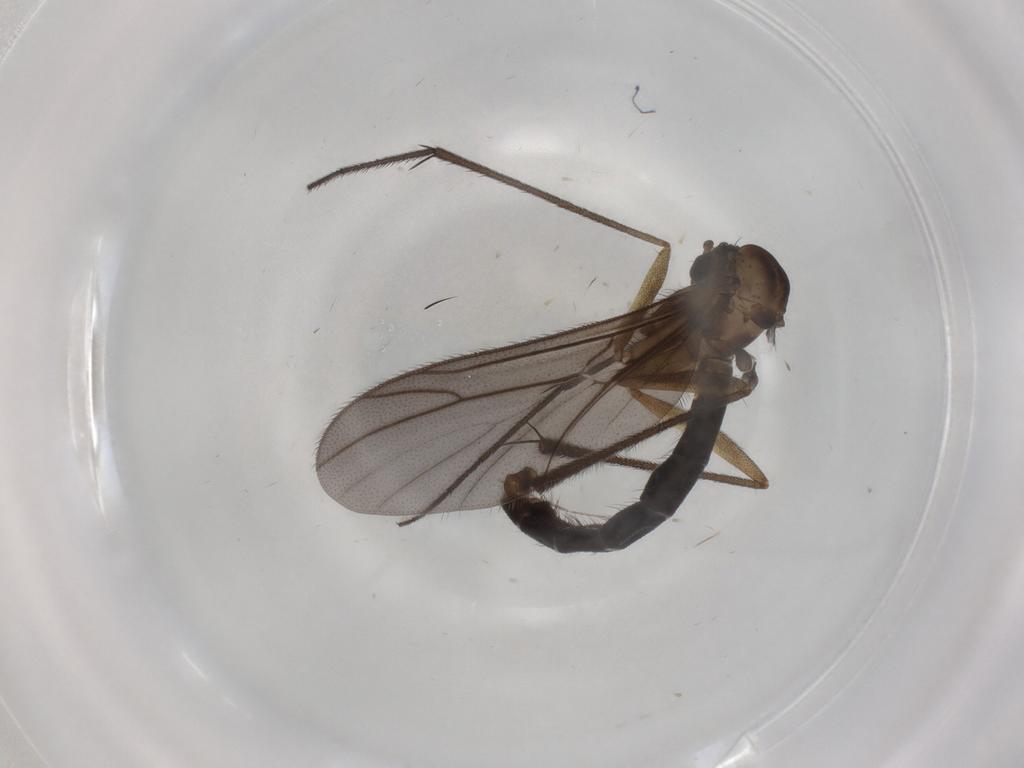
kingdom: Animalia
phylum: Arthropoda
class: Insecta
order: Diptera
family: Ditomyiidae
